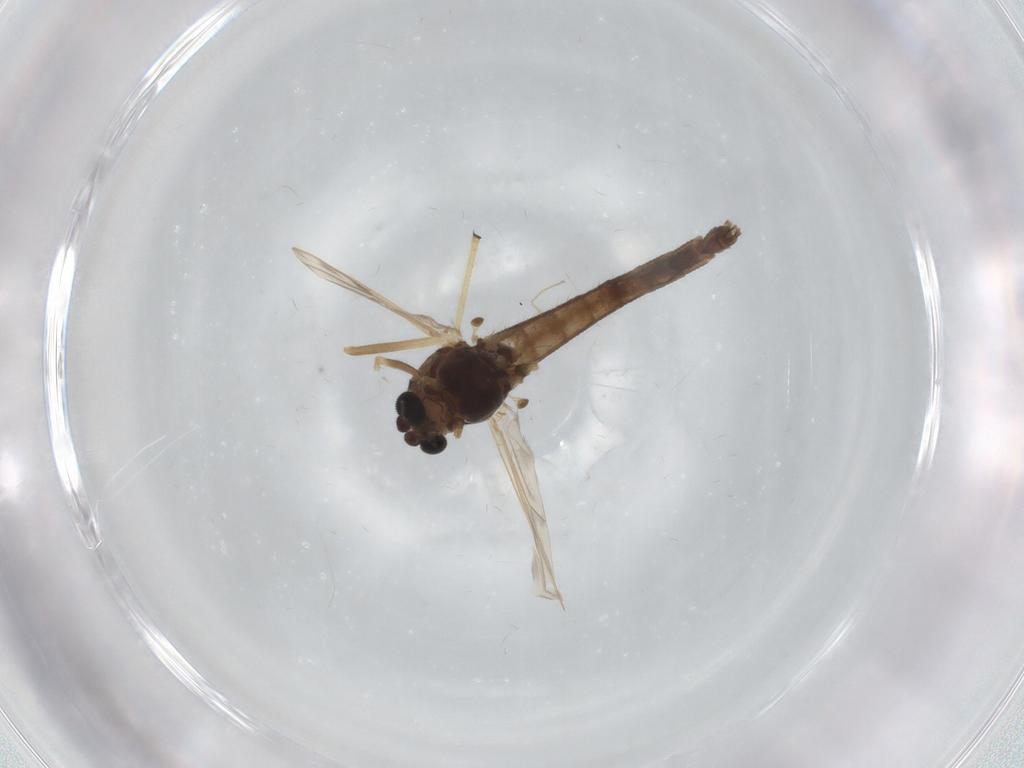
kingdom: Animalia
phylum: Arthropoda
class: Insecta
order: Diptera
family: Chironomidae
